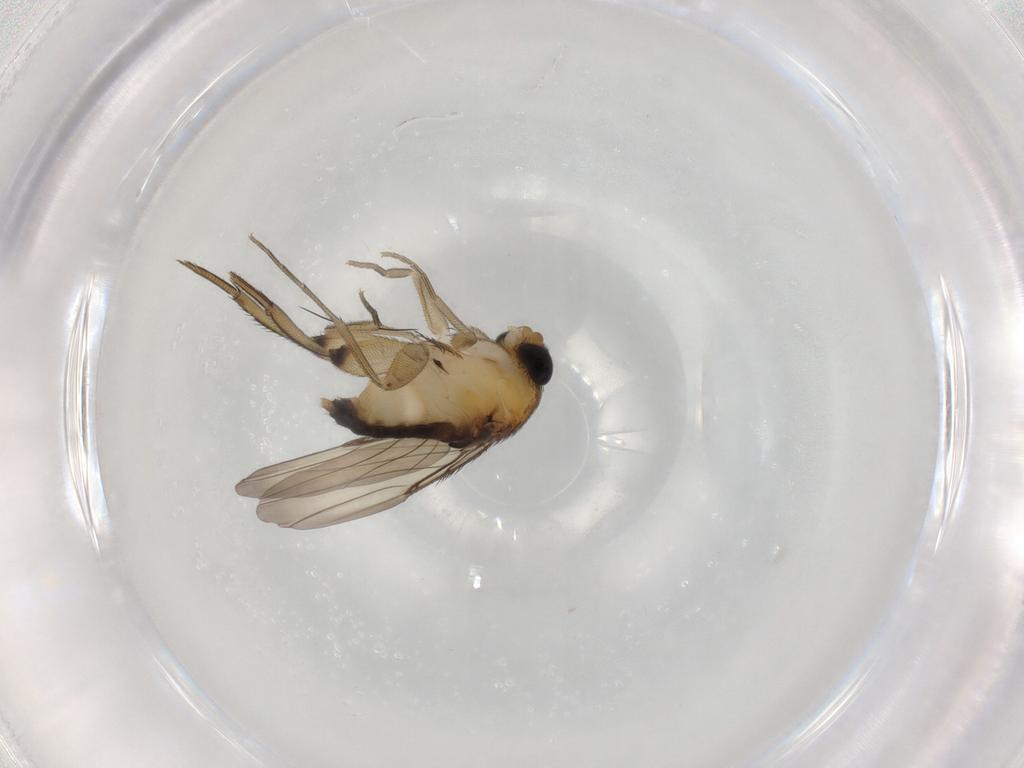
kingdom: Animalia
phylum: Arthropoda
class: Insecta
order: Diptera
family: Phoridae
